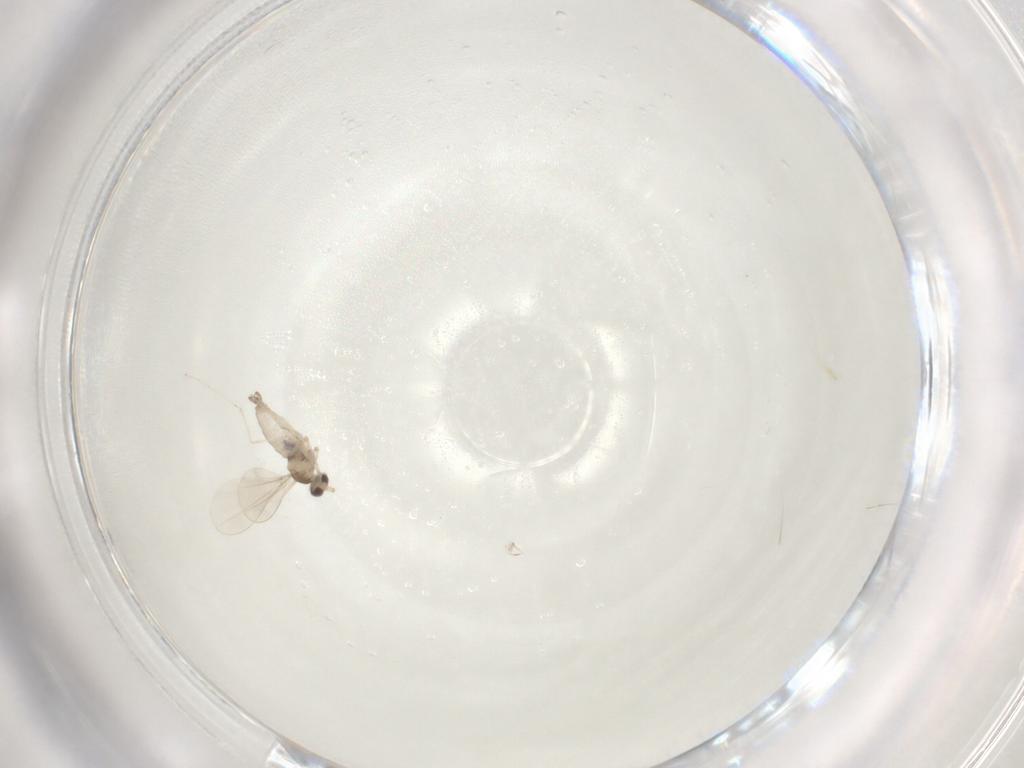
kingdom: Animalia
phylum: Arthropoda
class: Insecta
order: Diptera
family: Cecidomyiidae
